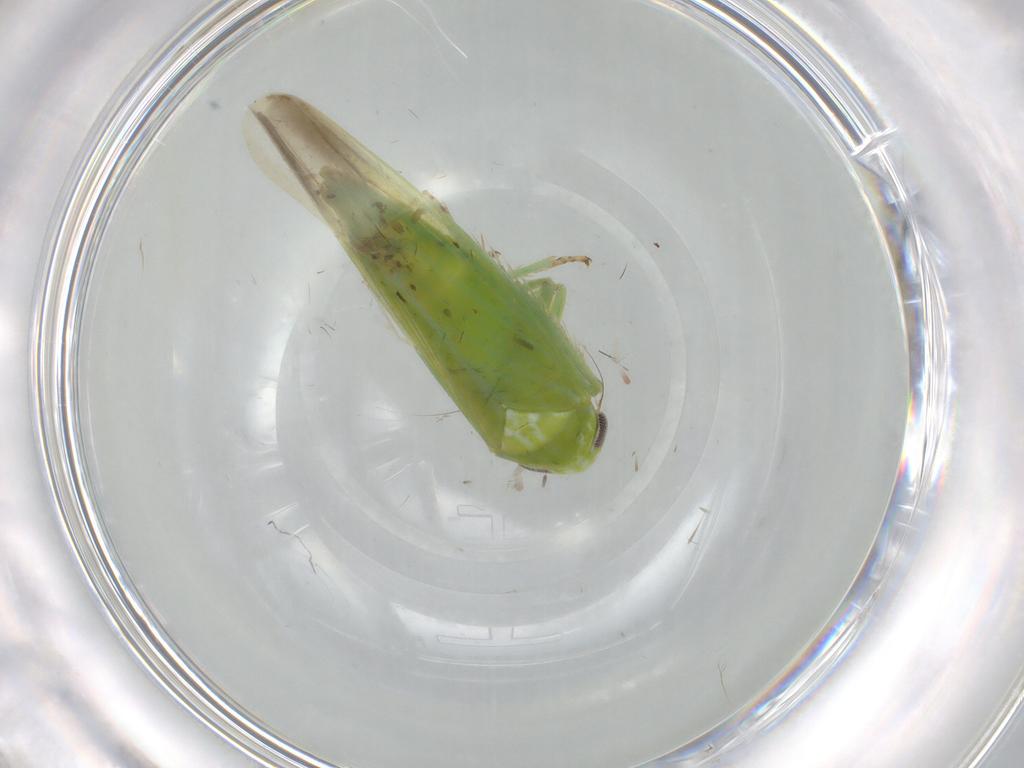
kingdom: Animalia
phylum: Arthropoda
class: Insecta
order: Hemiptera
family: Cicadellidae
